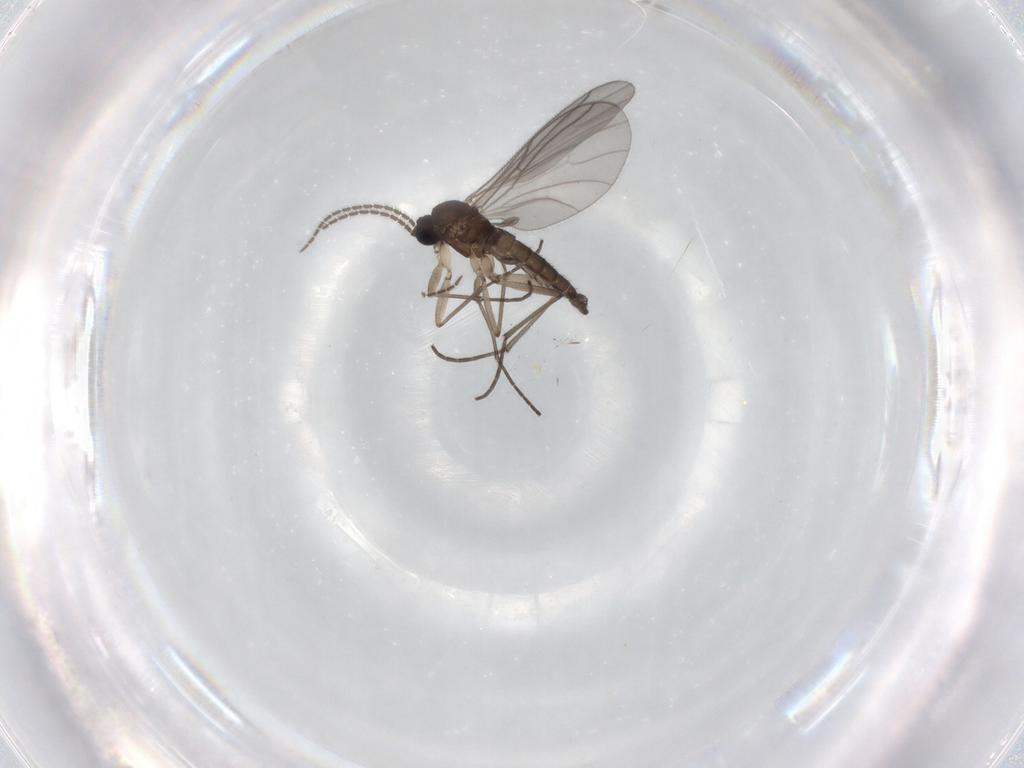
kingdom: Animalia
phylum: Arthropoda
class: Insecta
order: Diptera
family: Sciaridae
